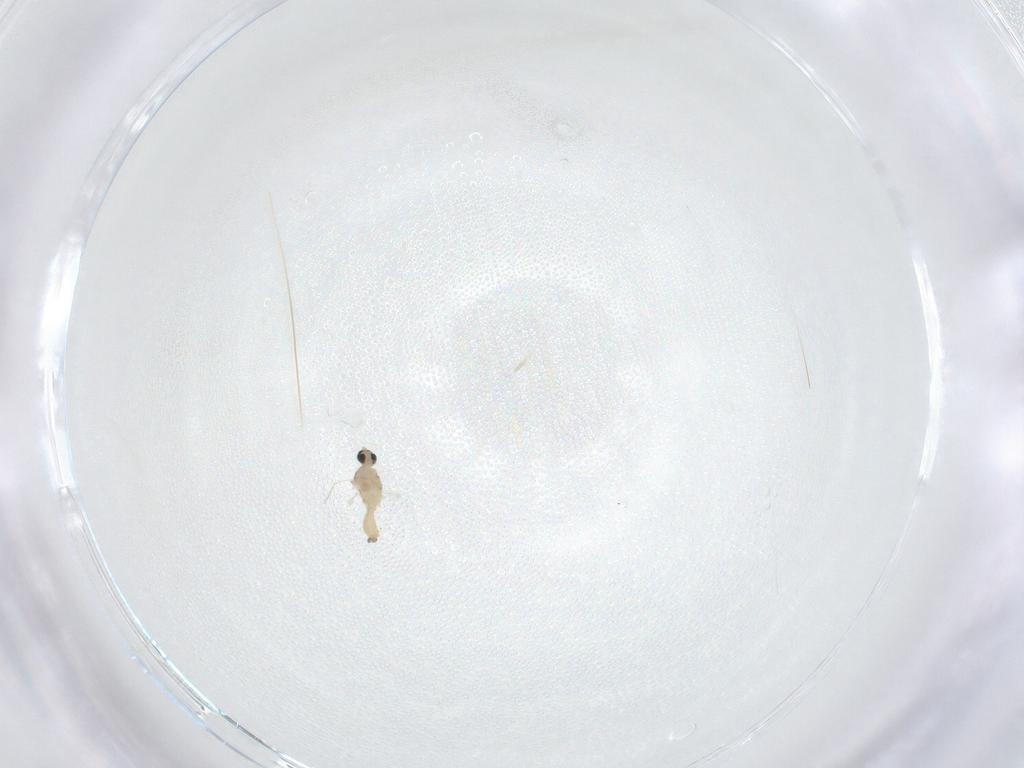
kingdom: Animalia
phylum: Arthropoda
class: Insecta
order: Diptera
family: Cecidomyiidae
